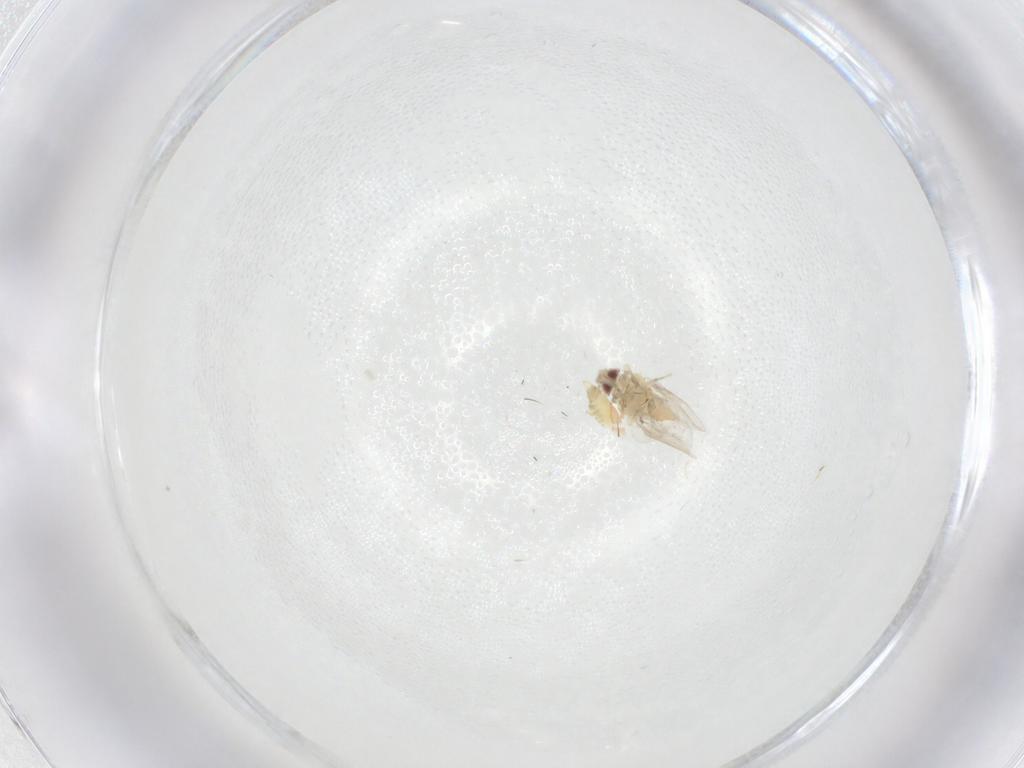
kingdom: Animalia
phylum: Arthropoda
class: Insecta
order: Hemiptera
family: Aleyrodidae
